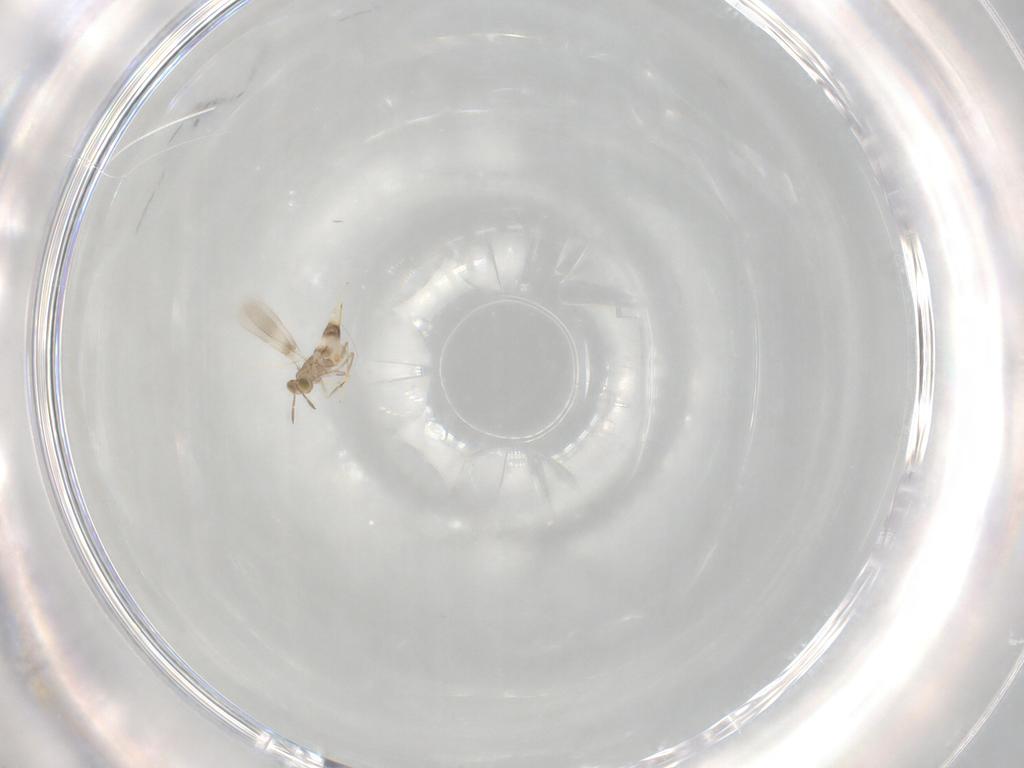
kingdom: Animalia
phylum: Arthropoda
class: Insecta
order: Hymenoptera
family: Aphelinidae
